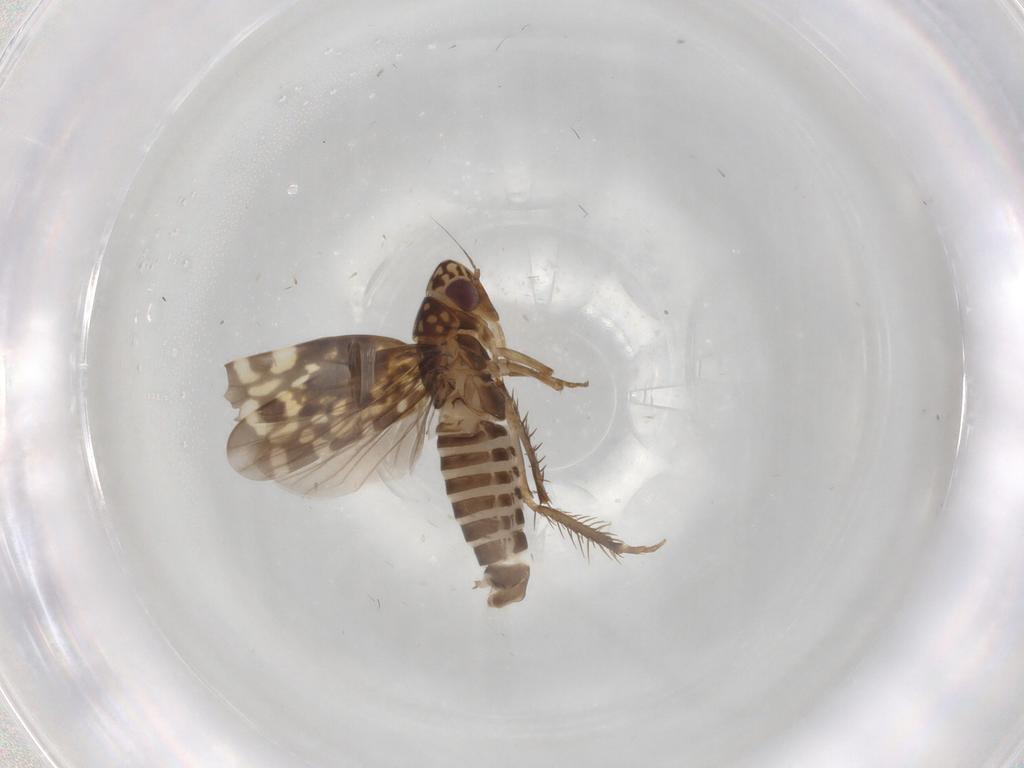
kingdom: Animalia
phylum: Arthropoda
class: Insecta
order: Hemiptera
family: Cicadellidae
